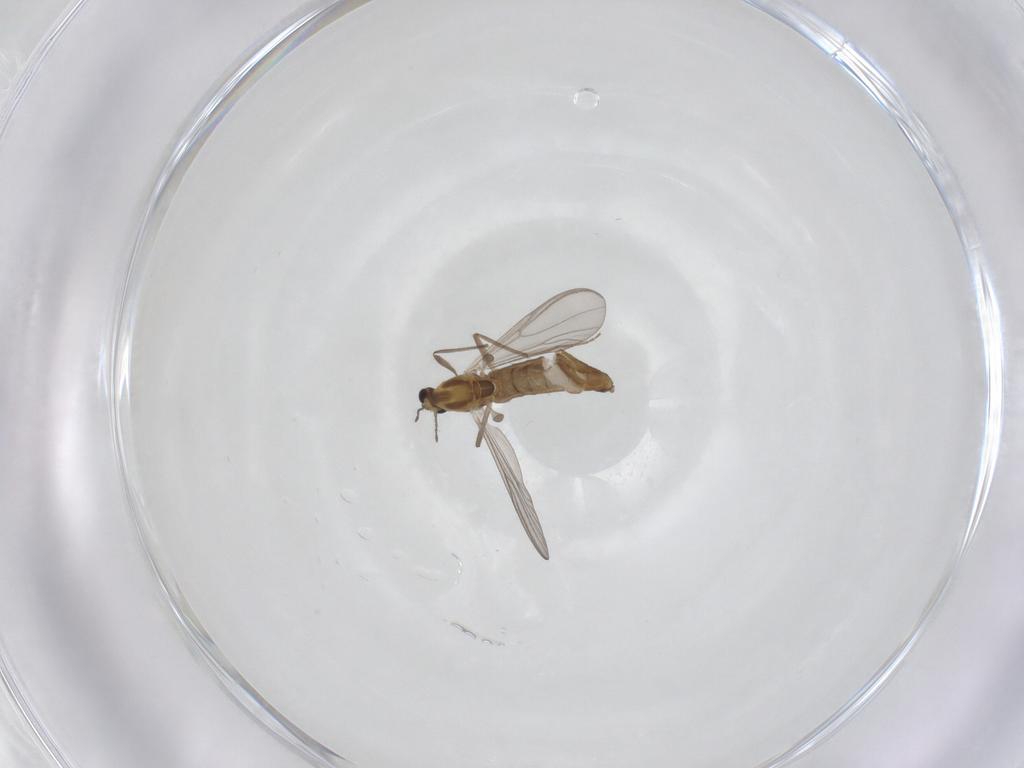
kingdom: Animalia
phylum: Arthropoda
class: Insecta
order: Diptera
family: Chironomidae
